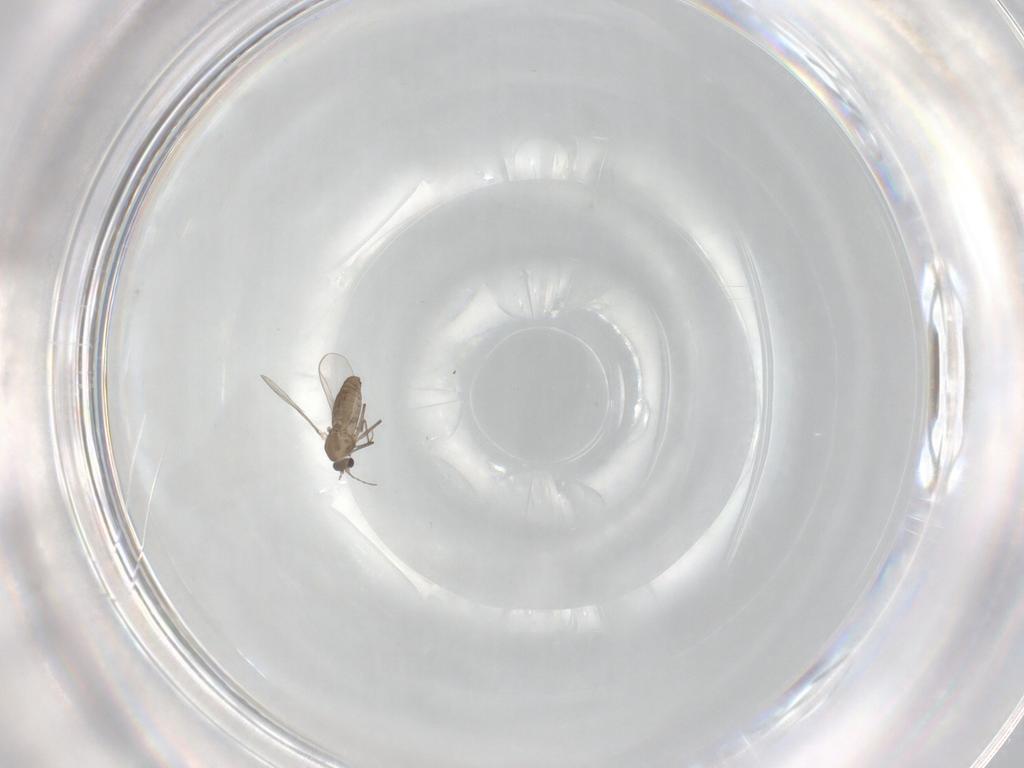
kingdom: Animalia
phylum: Arthropoda
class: Insecta
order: Diptera
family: Chironomidae
